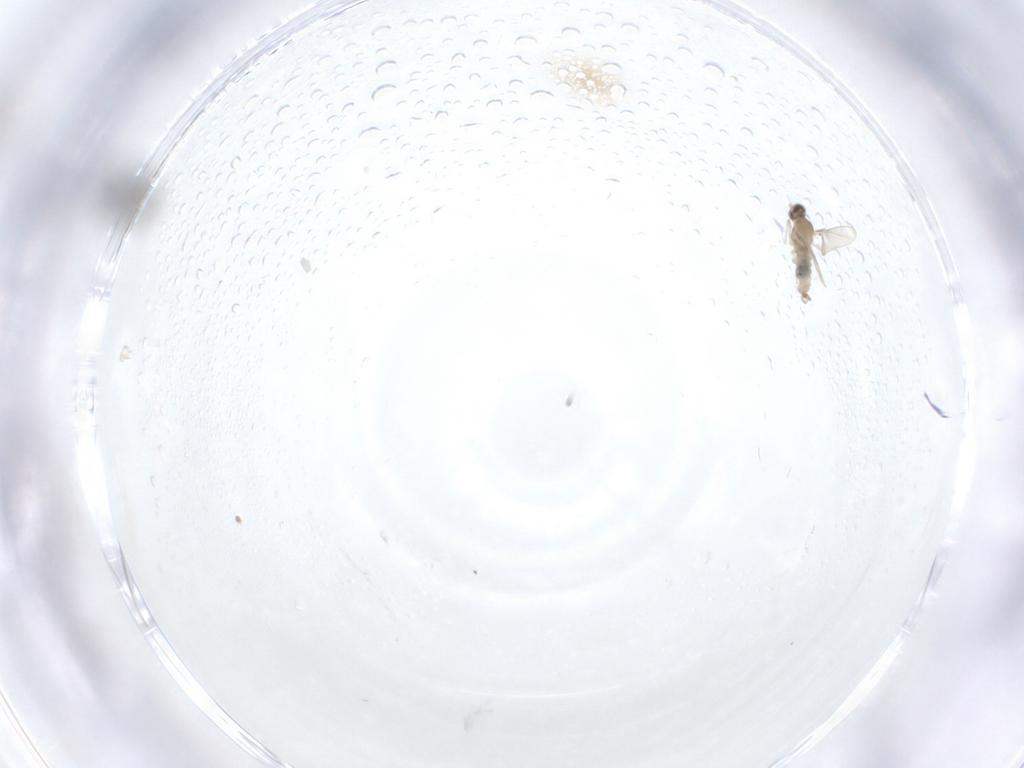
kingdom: Animalia
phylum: Arthropoda
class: Insecta
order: Diptera
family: Ceratopogonidae
